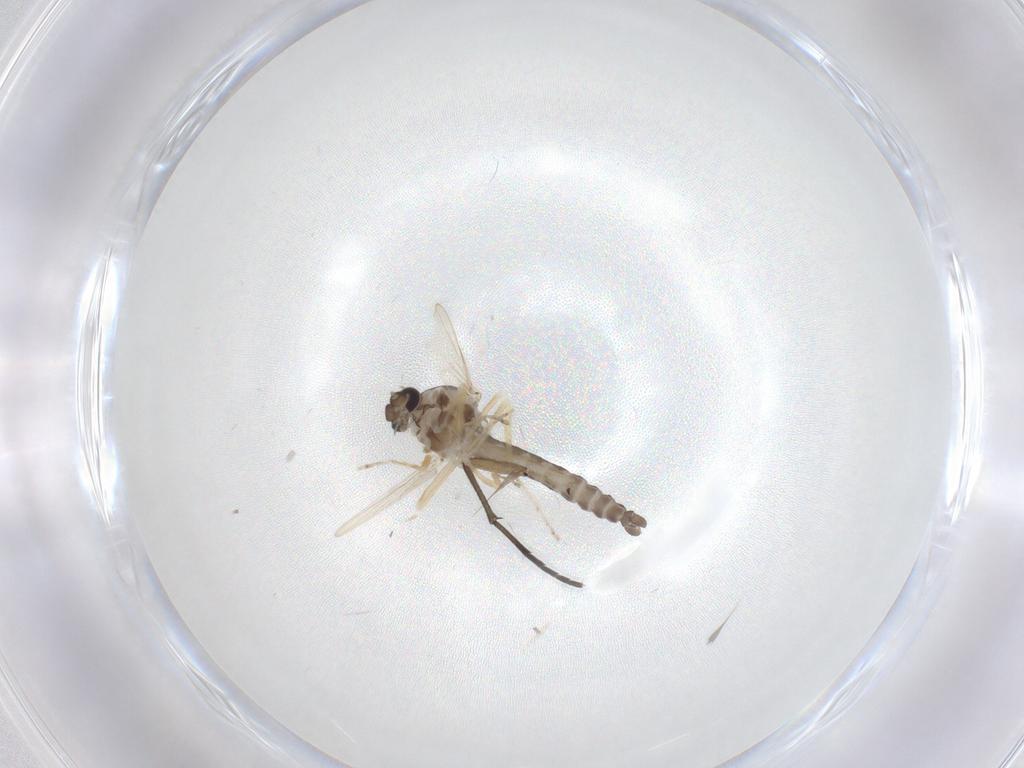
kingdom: Animalia
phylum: Arthropoda
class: Insecta
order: Diptera
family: Ceratopogonidae
